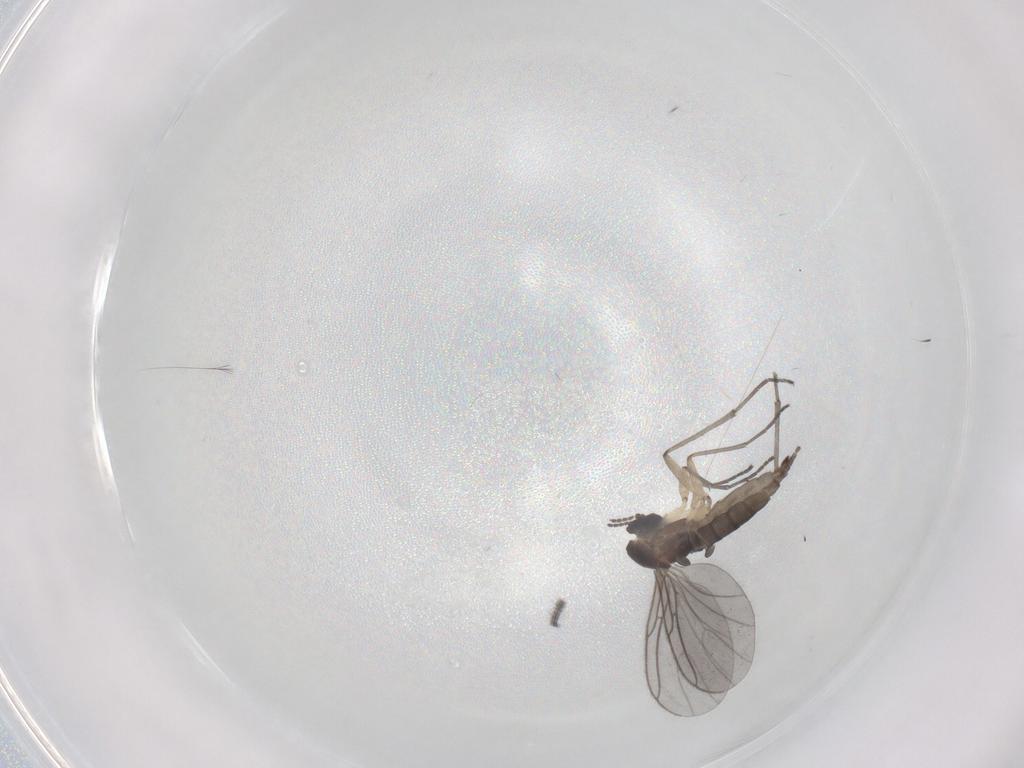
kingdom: Animalia
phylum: Arthropoda
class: Insecta
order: Diptera
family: Sciaridae
